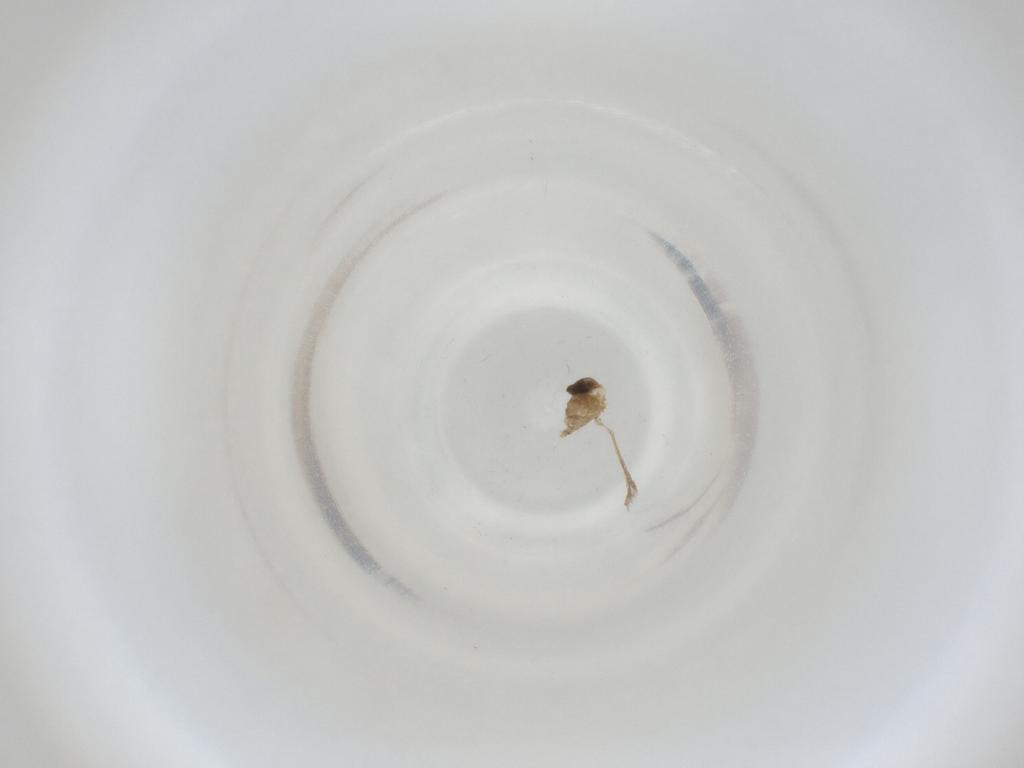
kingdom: Animalia
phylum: Arthropoda
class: Insecta
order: Diptera
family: Cecidomyiidae
